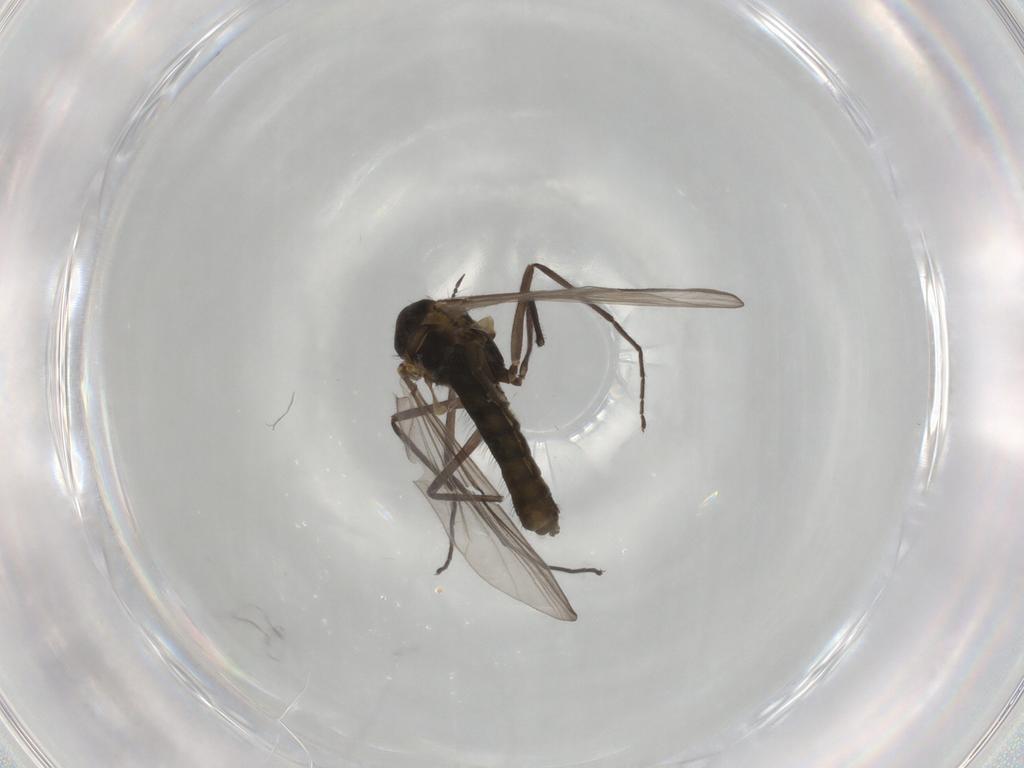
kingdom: Animalia
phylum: Arthropoda
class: Insecta
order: Diptera
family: Chironomidae
